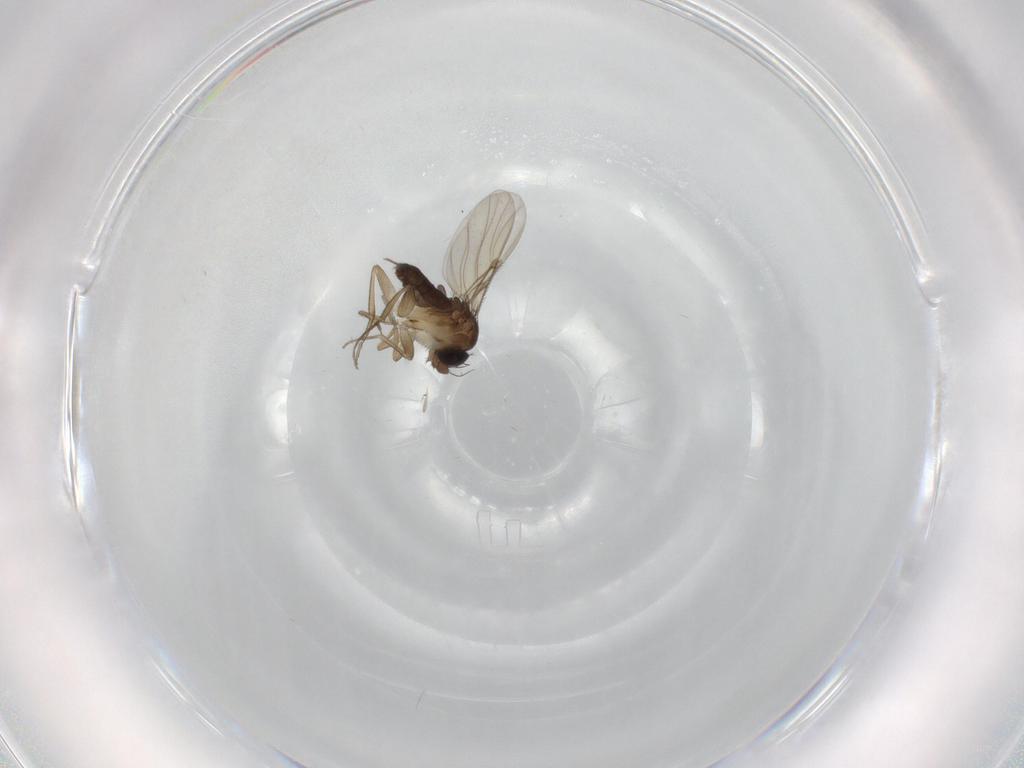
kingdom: Animalia
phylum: Arthropoda
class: Insecta
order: Diptera
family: Phoridae
